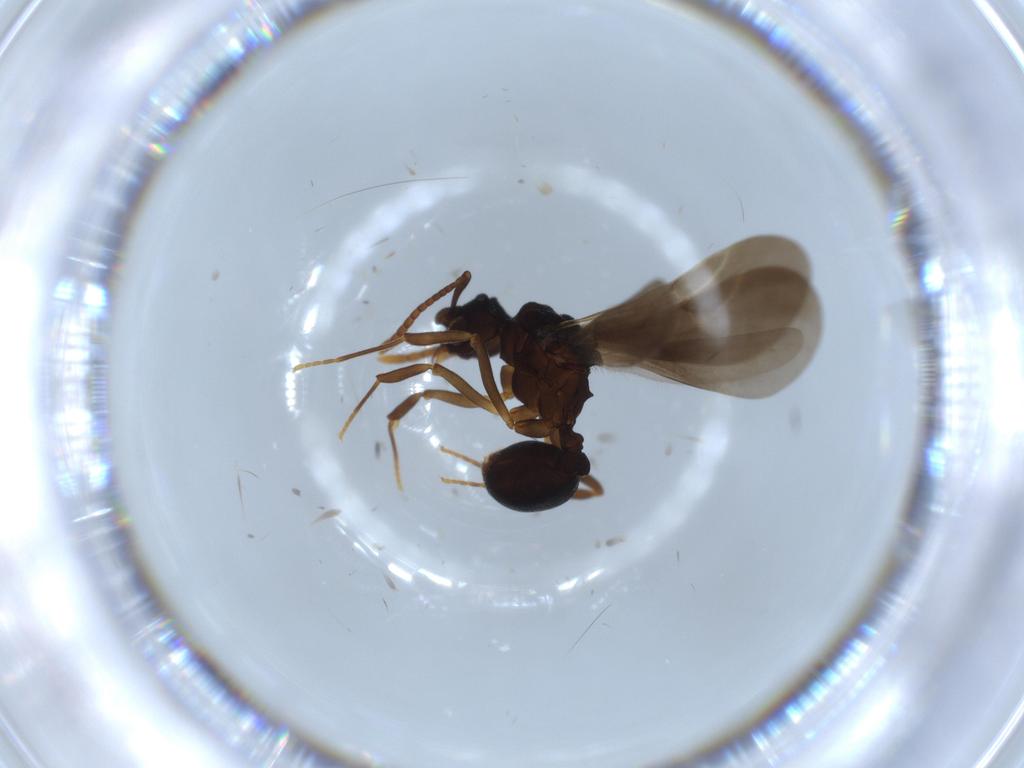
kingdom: Animalia
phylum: Arthropoda
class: Insecta
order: Hymenoptera
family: Formicidae
